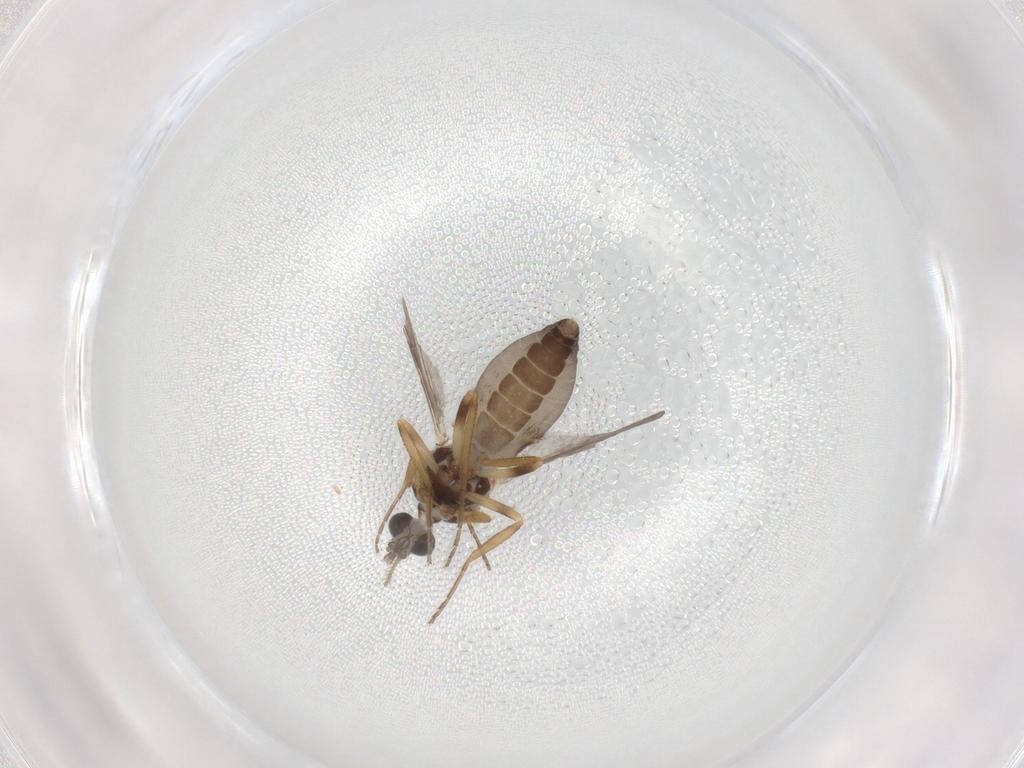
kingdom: Animalia
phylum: Arthropoda
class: Insecta
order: Diptera
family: Ceratopogonidae
